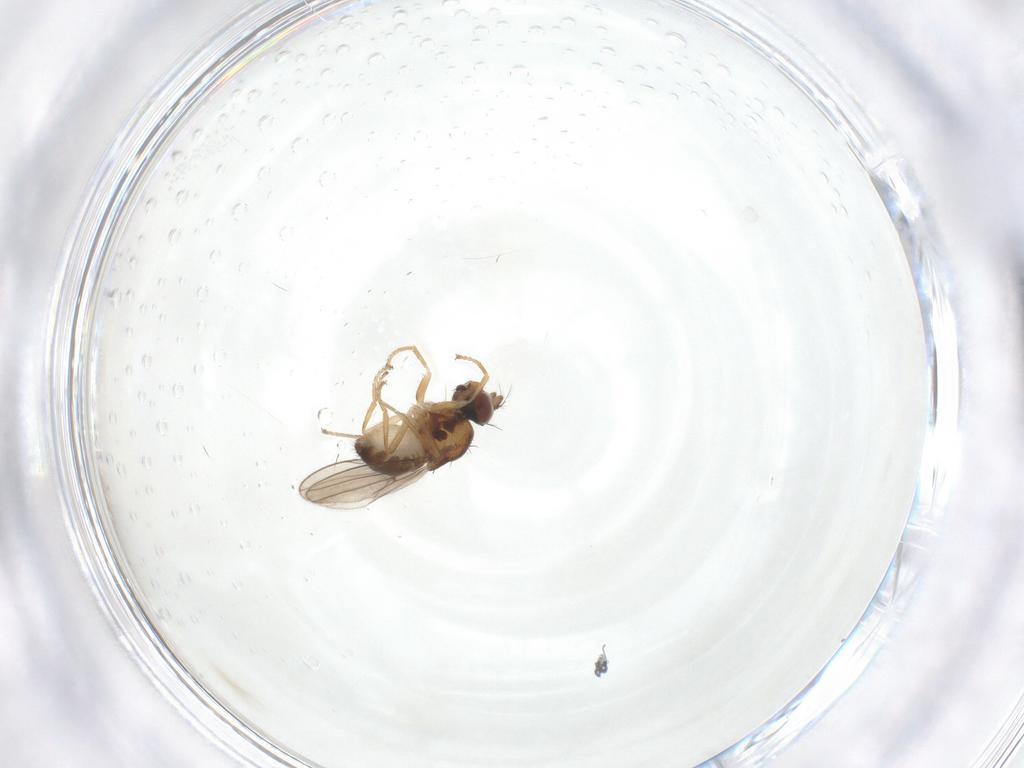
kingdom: Animalia
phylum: Arthropoda
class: Insecta
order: Diptera
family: Ephydridae
